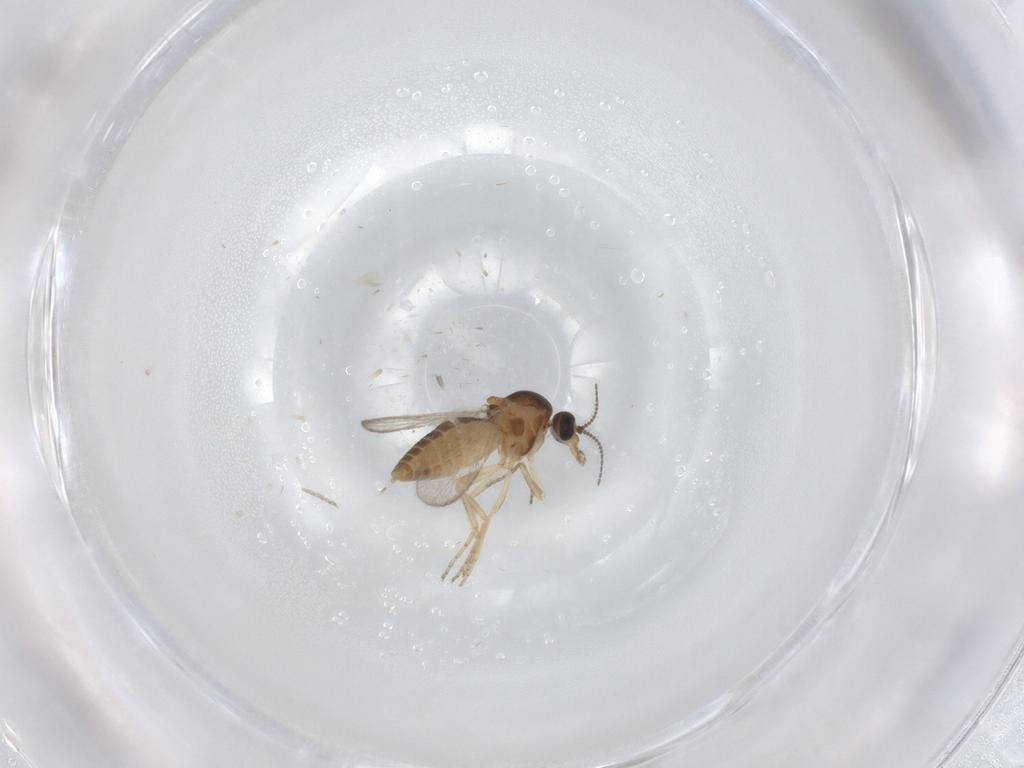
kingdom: Animalia
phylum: Arthropoda
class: Insecta
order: Diptera
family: Ceratopogonidae
